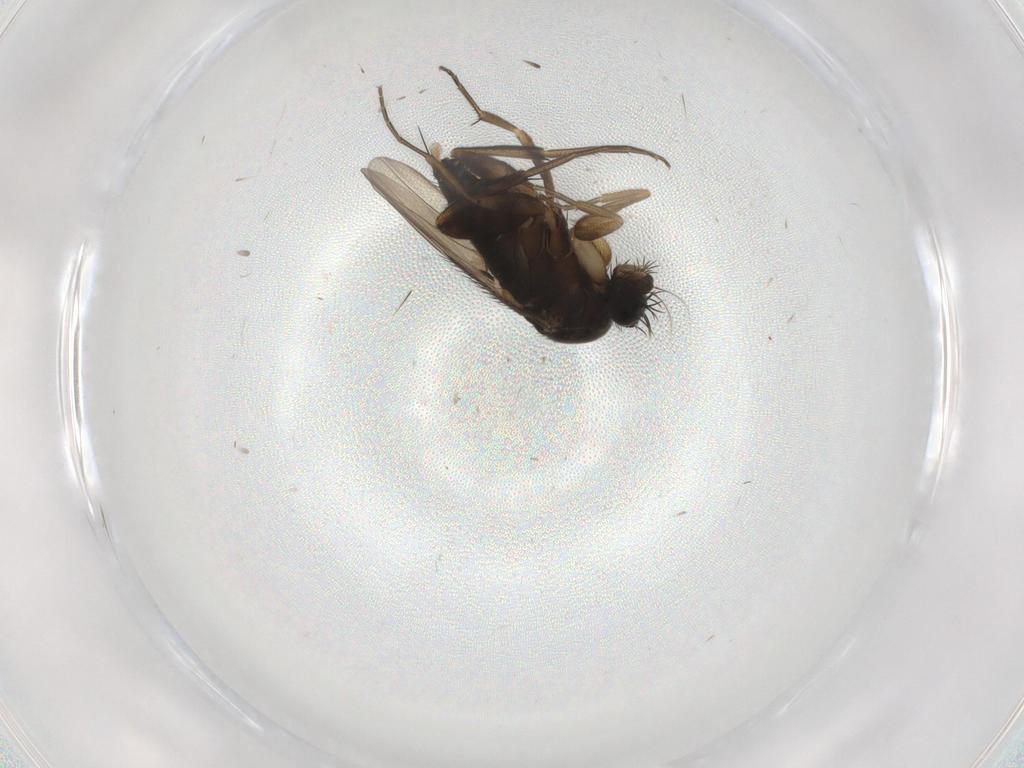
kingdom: Animalia
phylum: Arthropoda
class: Insecta
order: Diptera
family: Phoridae
